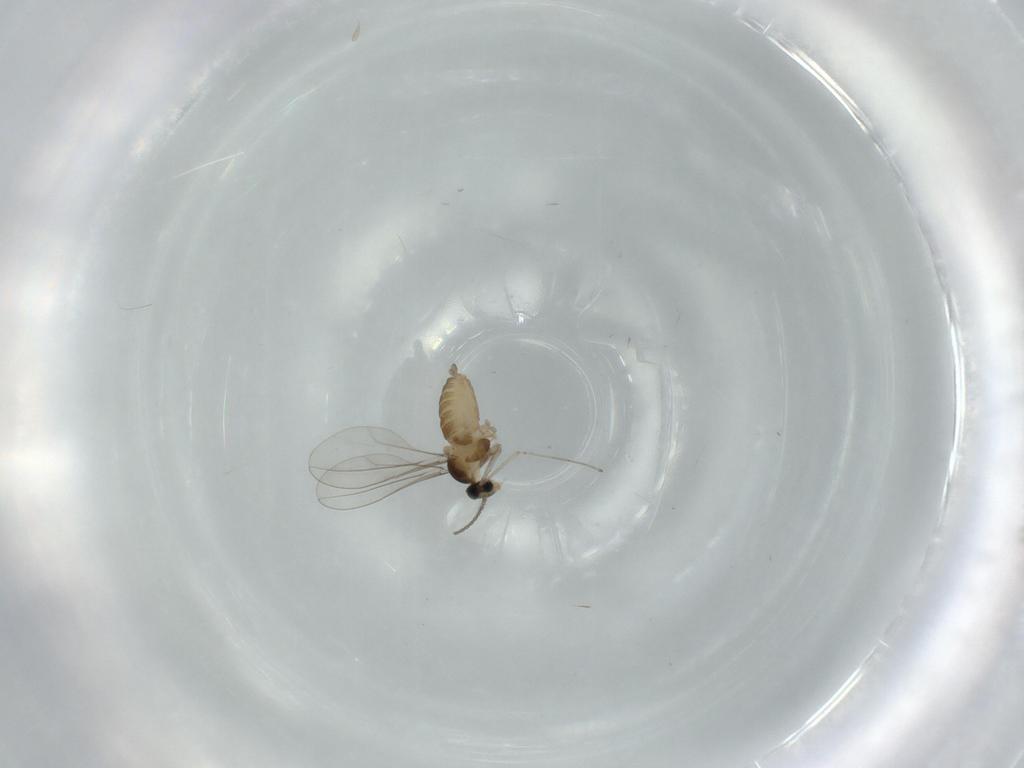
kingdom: Animalia
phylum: Arthropoda
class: Insecta
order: Diptera
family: Cecidomyiidae
